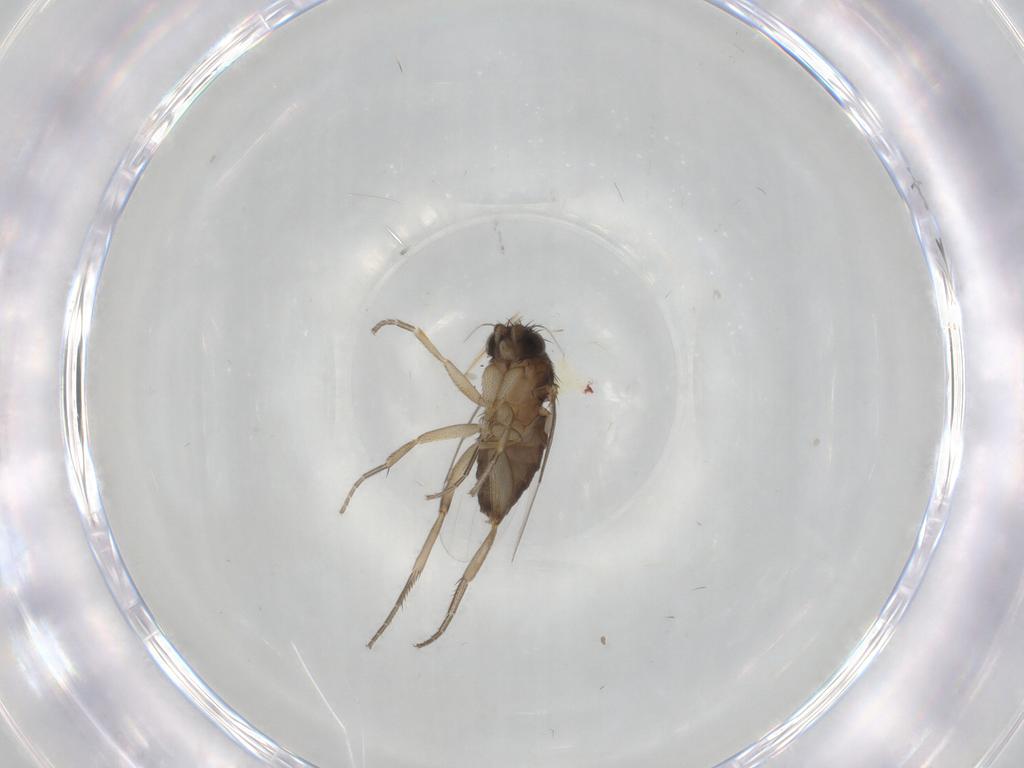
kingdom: Animalia
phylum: Arthropoda
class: Insecta
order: Diptera
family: Phoridae
